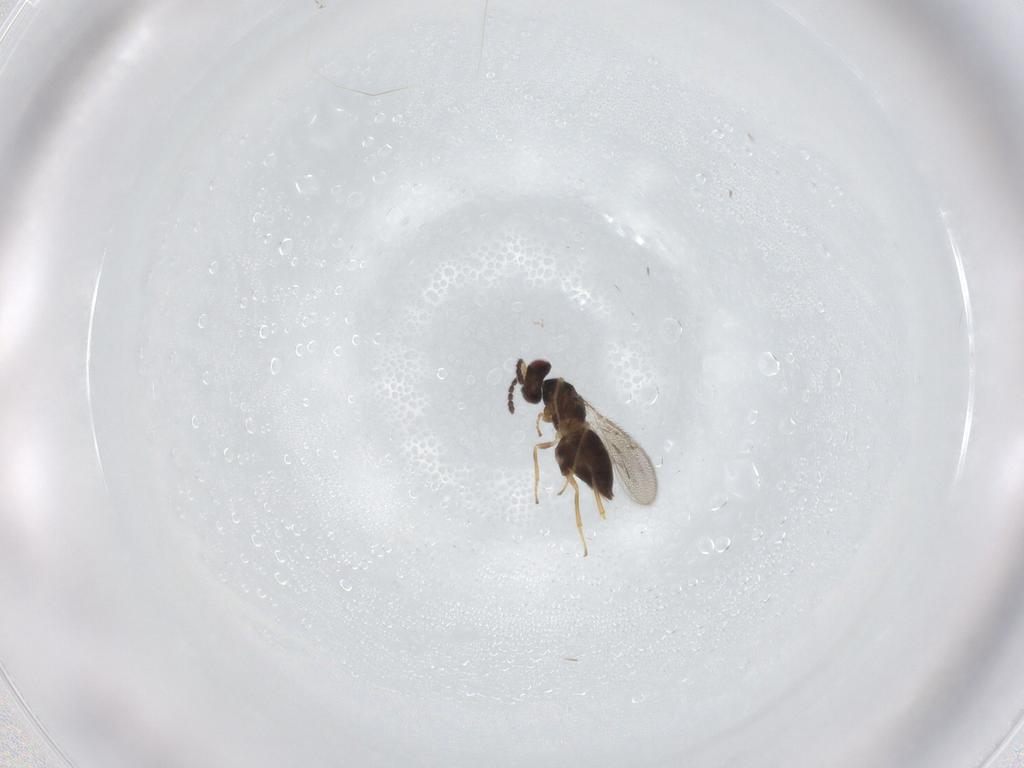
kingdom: Animalia
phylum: Arthropoda
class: Insecta
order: Hymenoptera
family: Eulophidae
